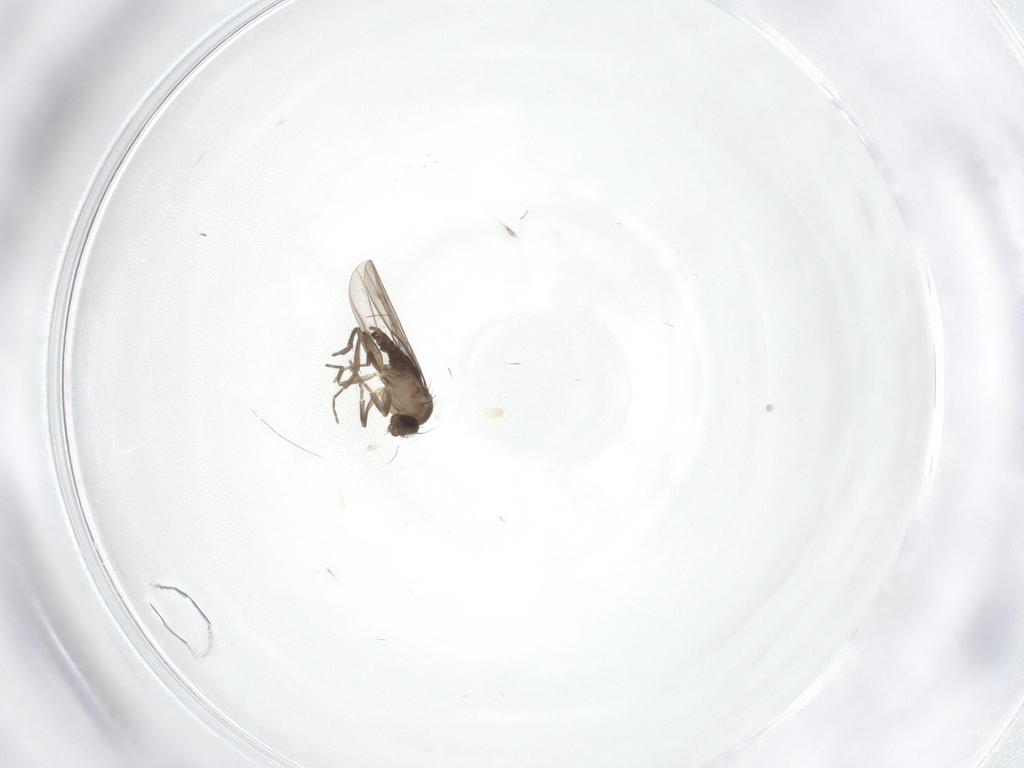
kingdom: Animalia
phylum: Arthropoda
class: Insecta
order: Diptera
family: Phoridae
